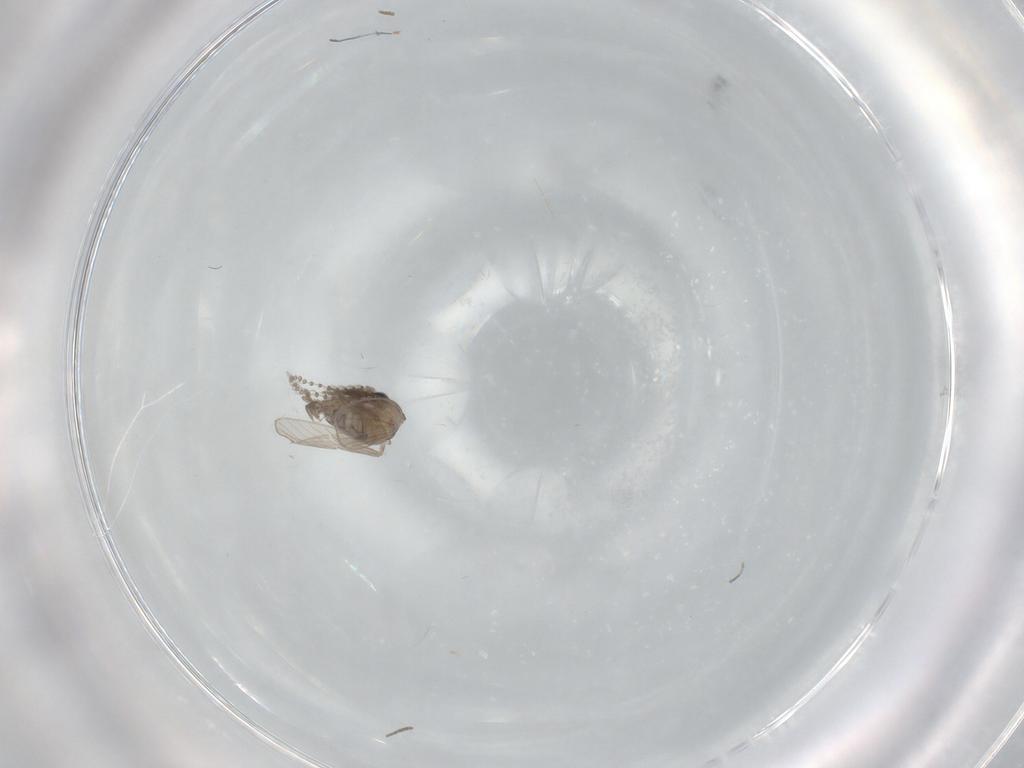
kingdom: Animalia
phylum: Arthropoda
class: Insecta
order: Diptera
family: Psychodidae
